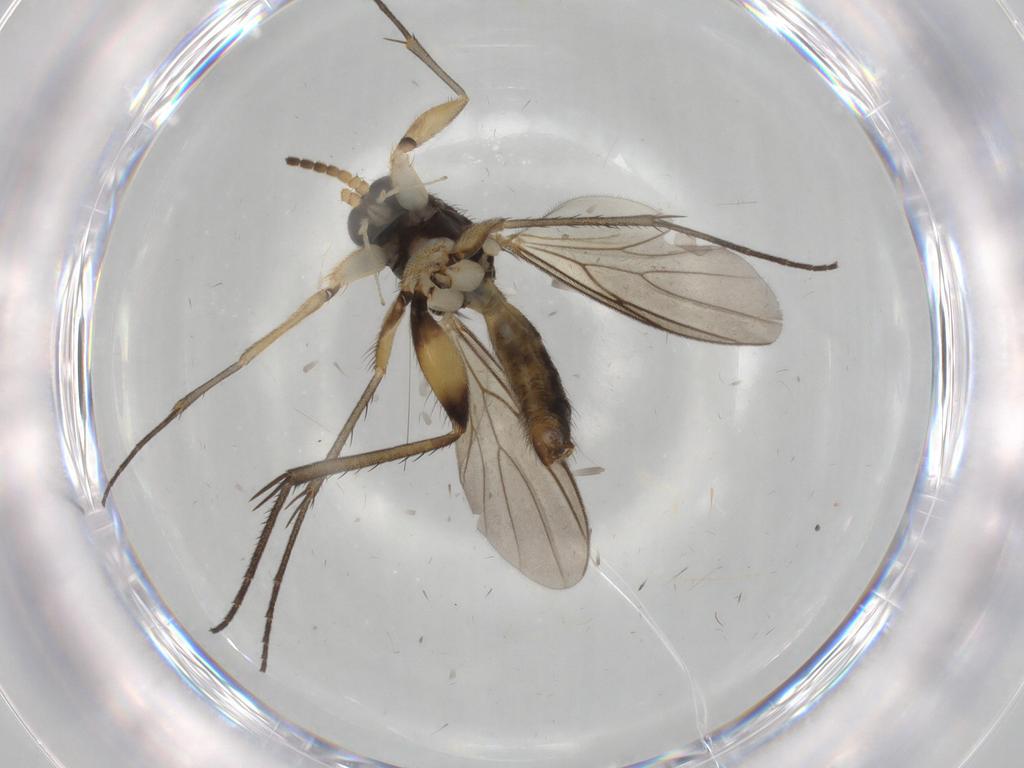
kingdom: Animalia
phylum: Arthropoda
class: Insecta
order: Diptera
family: Cecidomyiidae
